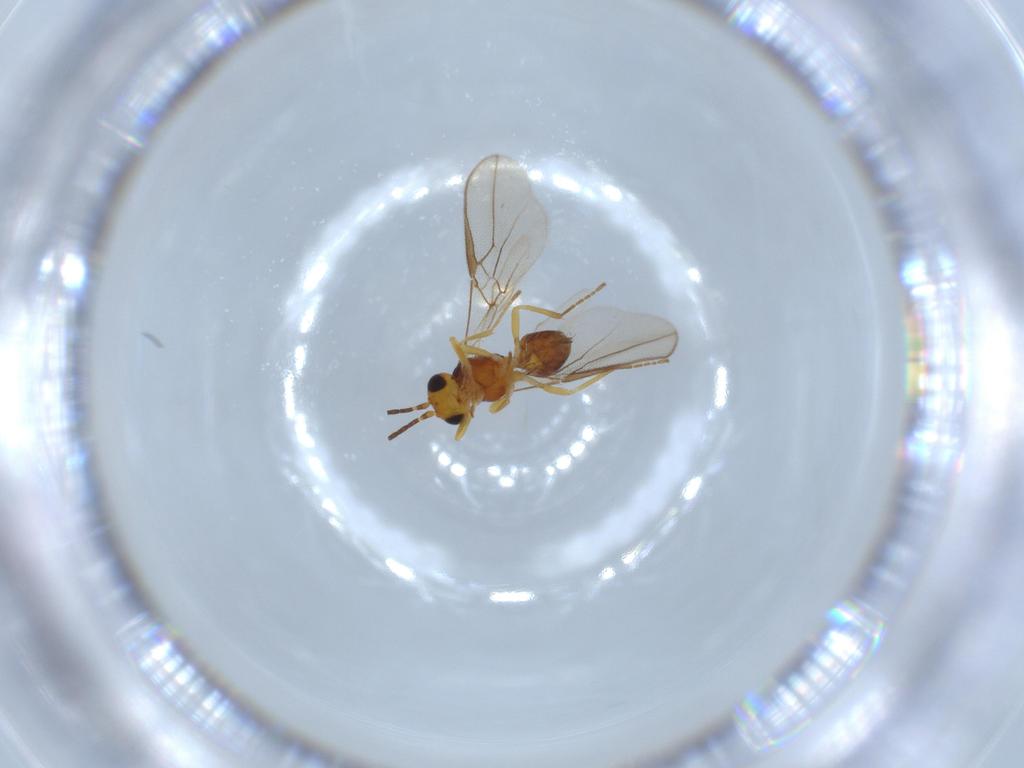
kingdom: Animalia
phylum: Arthropoda
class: Insecta
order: Hymenoptera
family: Braconidae
